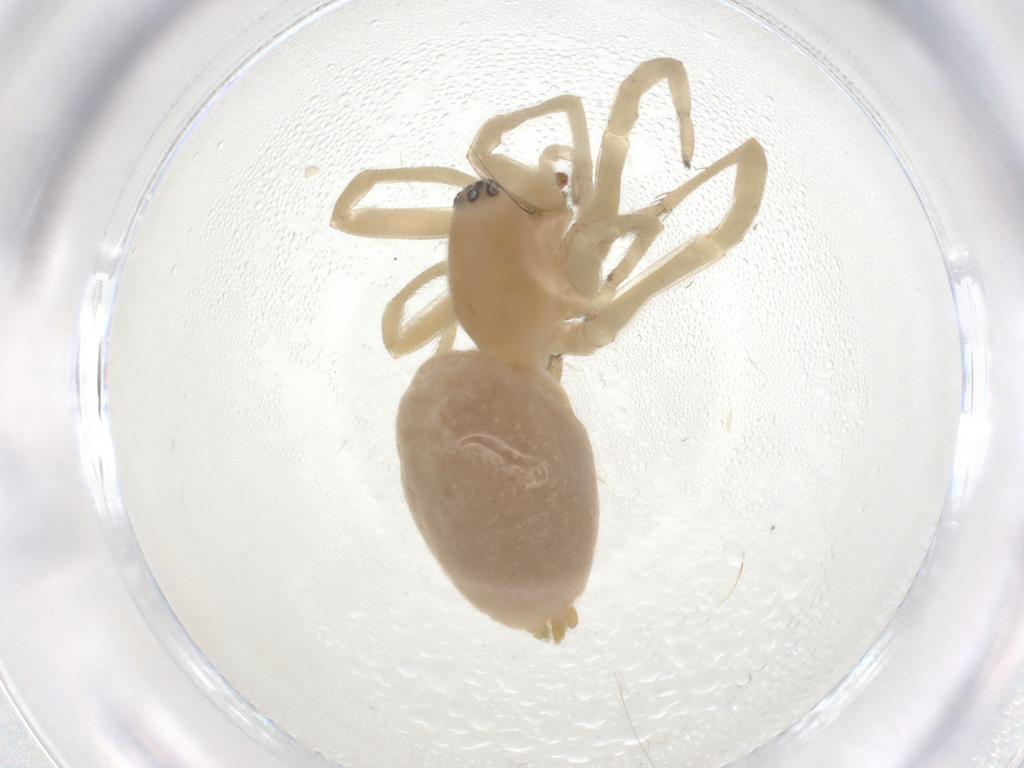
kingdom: Animalia
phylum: Arthropoda
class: Arachnida
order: Araneae
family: Cheiracanthiidae
